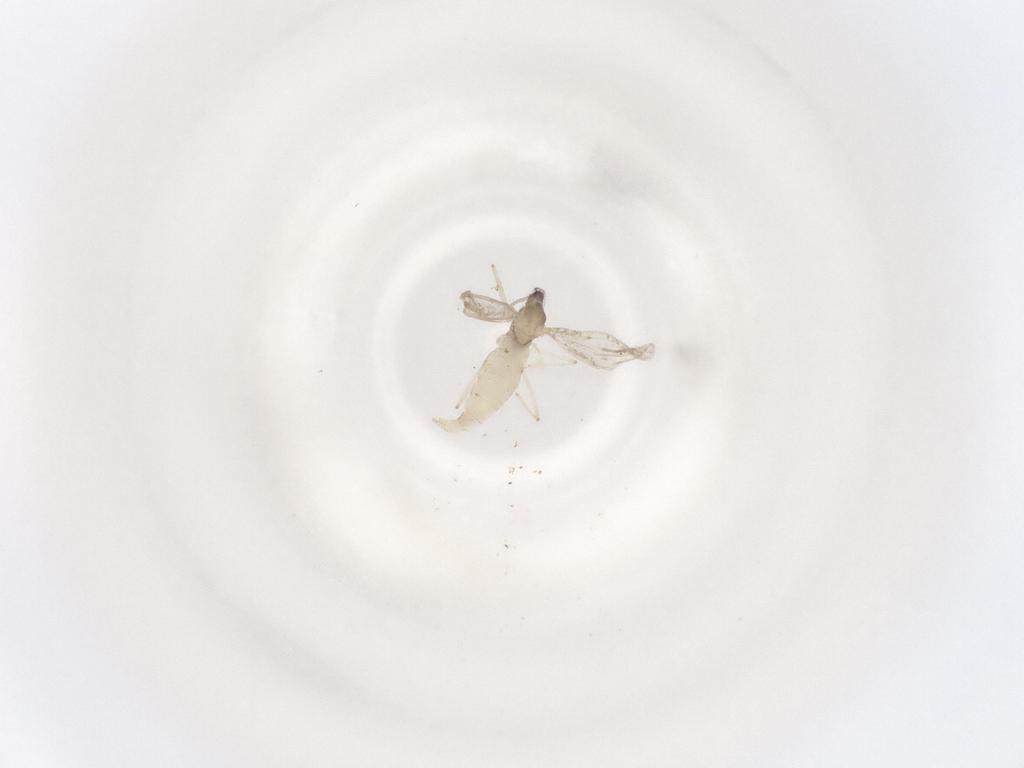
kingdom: Animalia
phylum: Arthropoda
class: Insecta
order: Diptera
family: Cecidomyiidae
